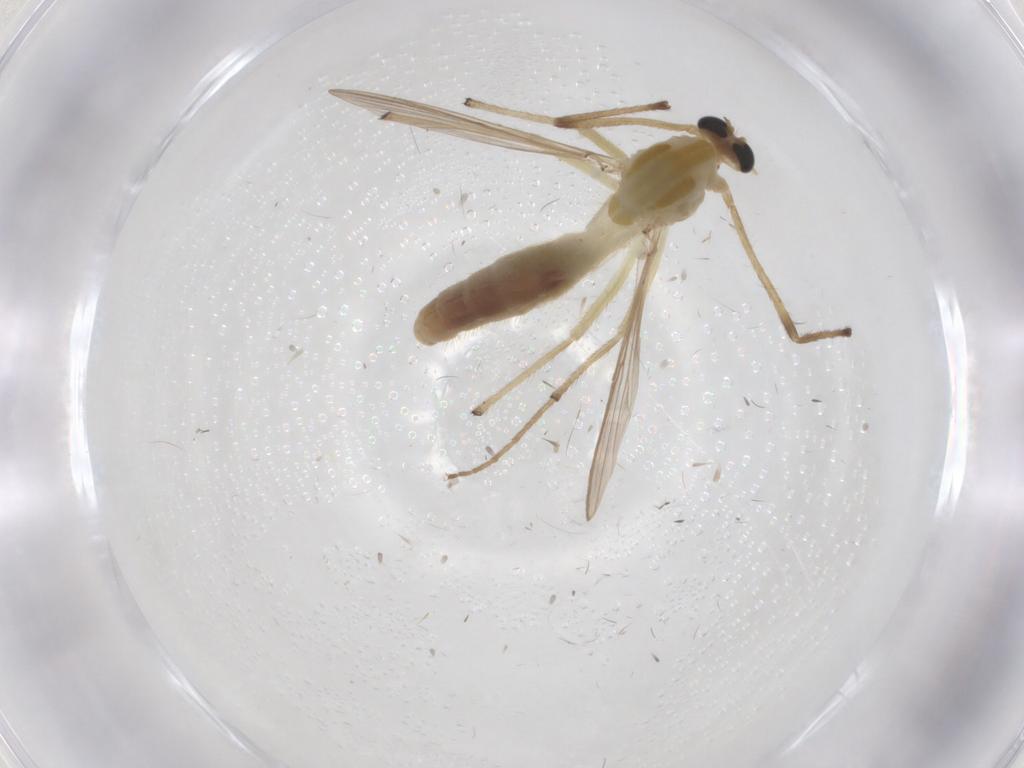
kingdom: Animalia
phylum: Arthropoda
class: Insecta
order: Diptera
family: Chironomidae
